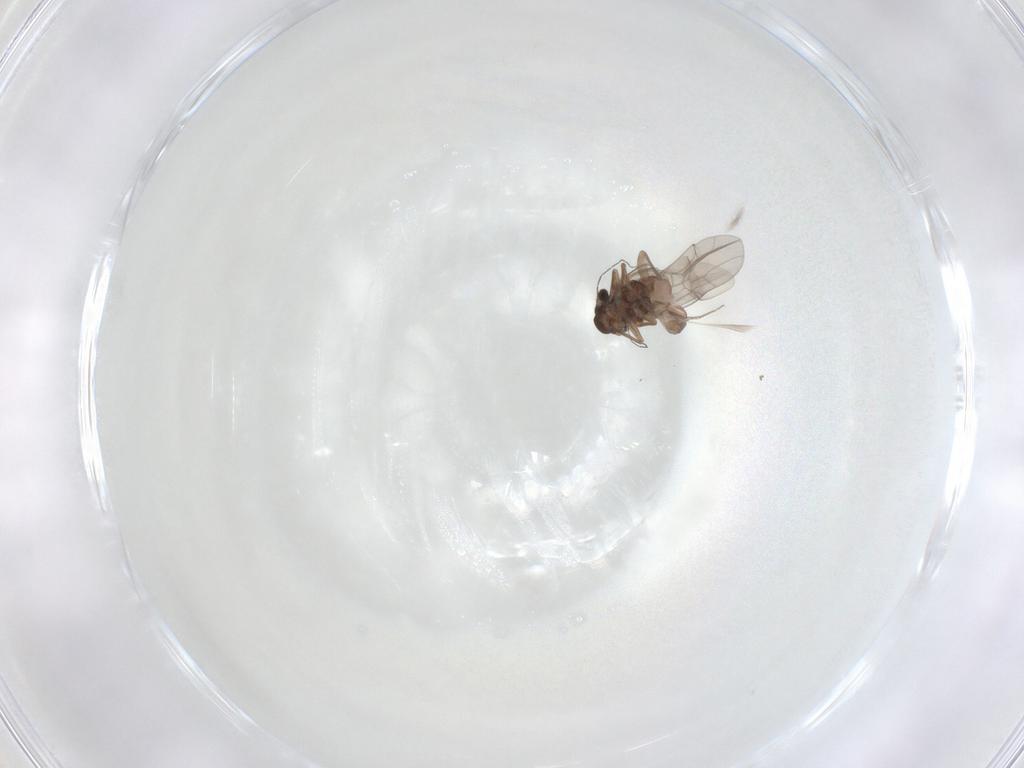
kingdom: Animalia
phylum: Arthropoda
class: Insecta
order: Psocodea
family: Lepidopsocidae
